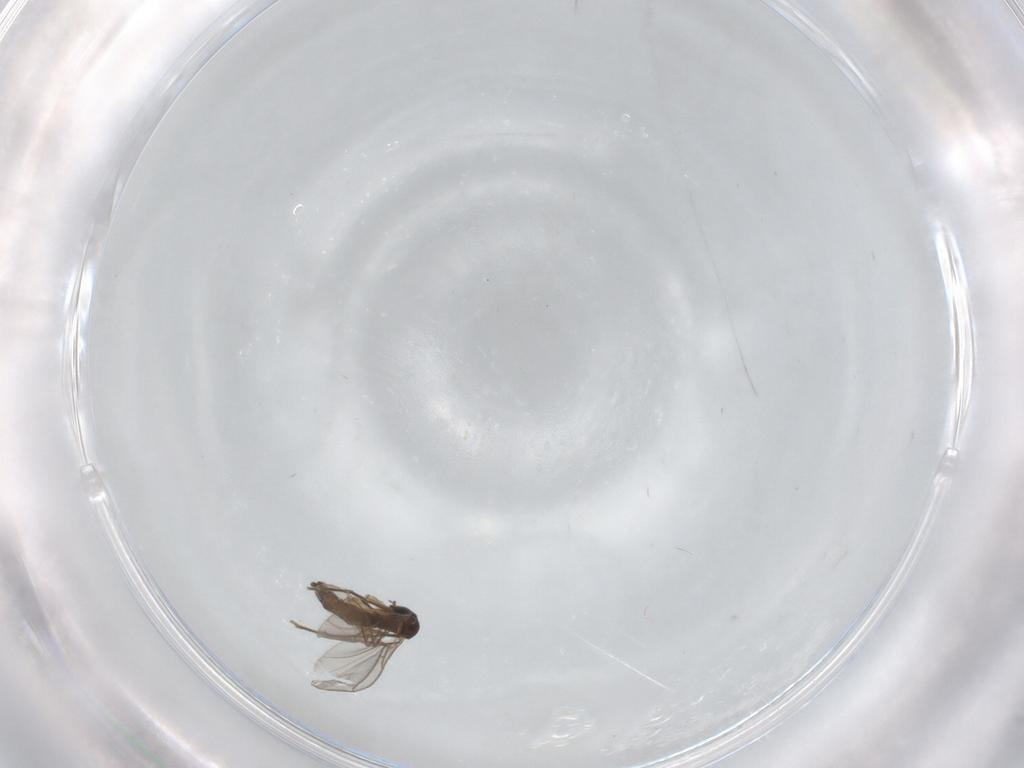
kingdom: Animalia
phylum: Arthropoda
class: Insecta
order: Diptera
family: Sciaridae
